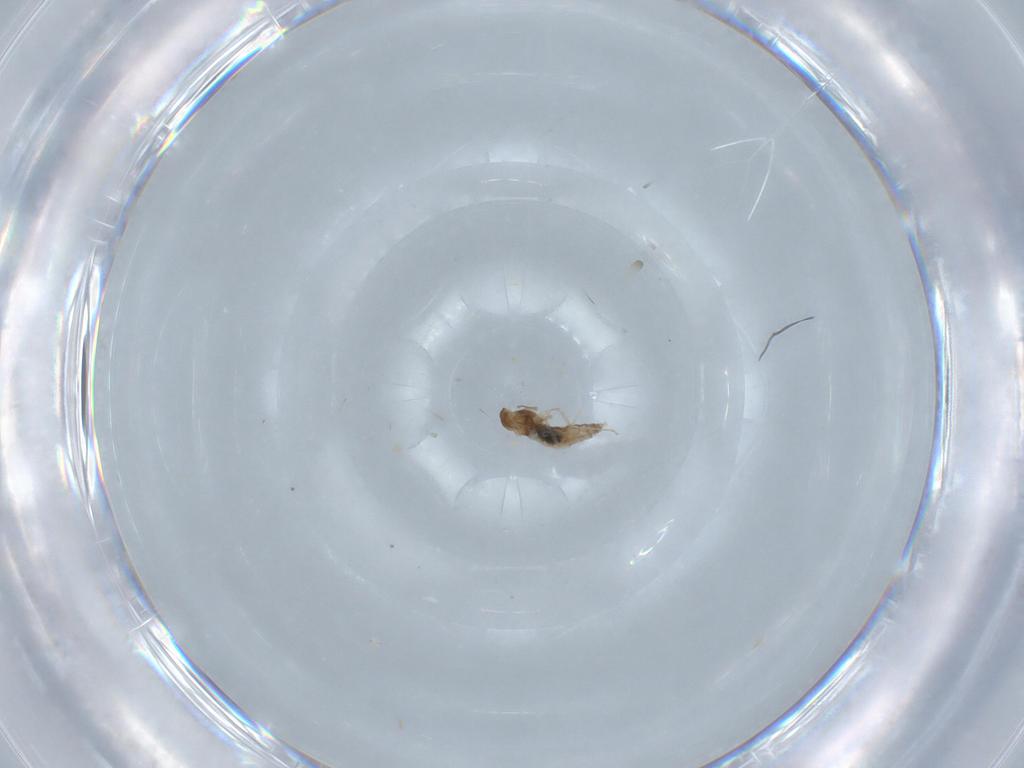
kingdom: Animalia
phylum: Arthropoda
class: Insecta
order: Diptera
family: Cecidomyiidae
